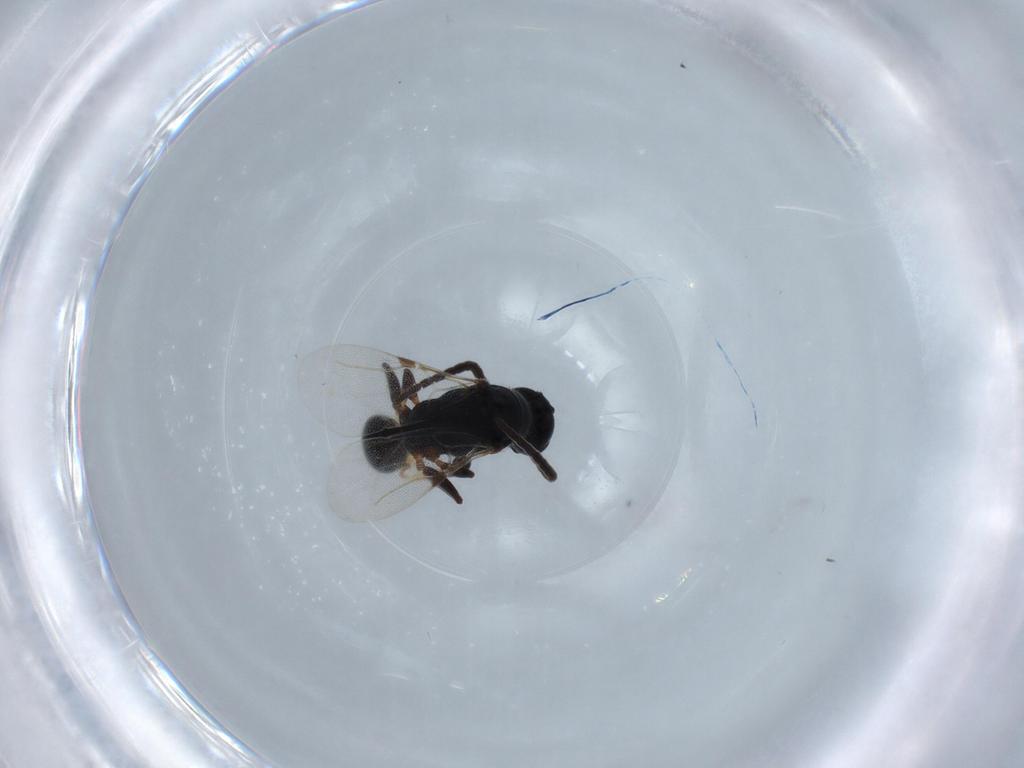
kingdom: Animalia
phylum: Arthropoda
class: Insecta
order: Hymenoptera
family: Bethylidae
